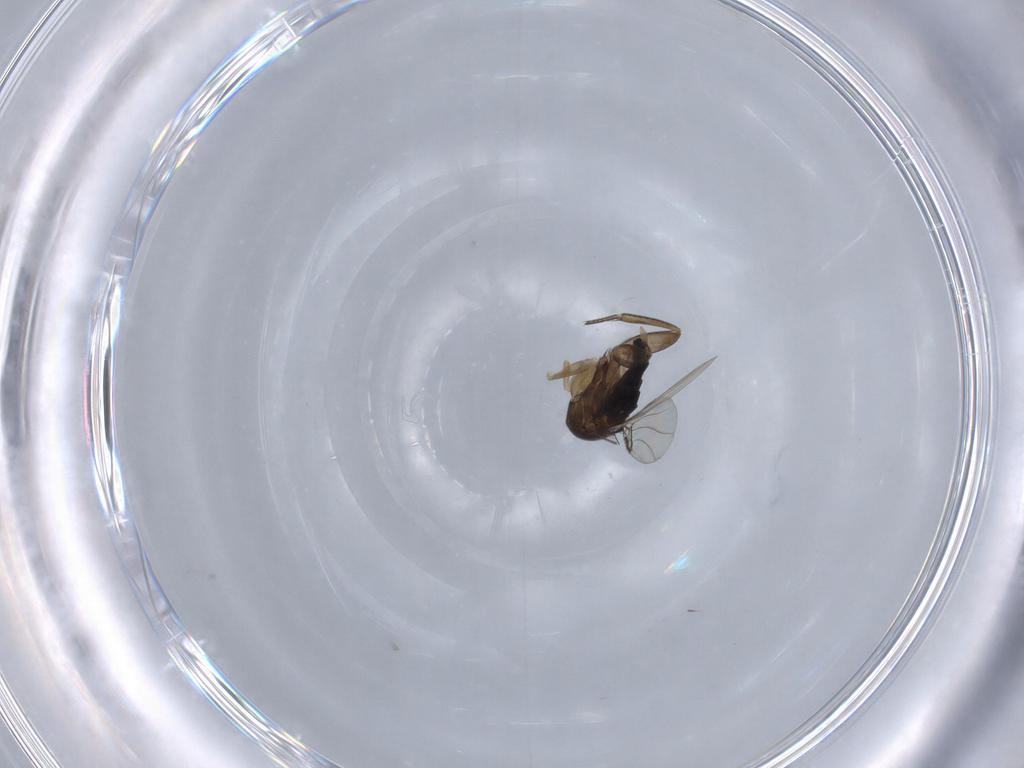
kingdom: Animalia
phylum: Arthropoda
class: Insecta
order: Diptera
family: Phoridae
